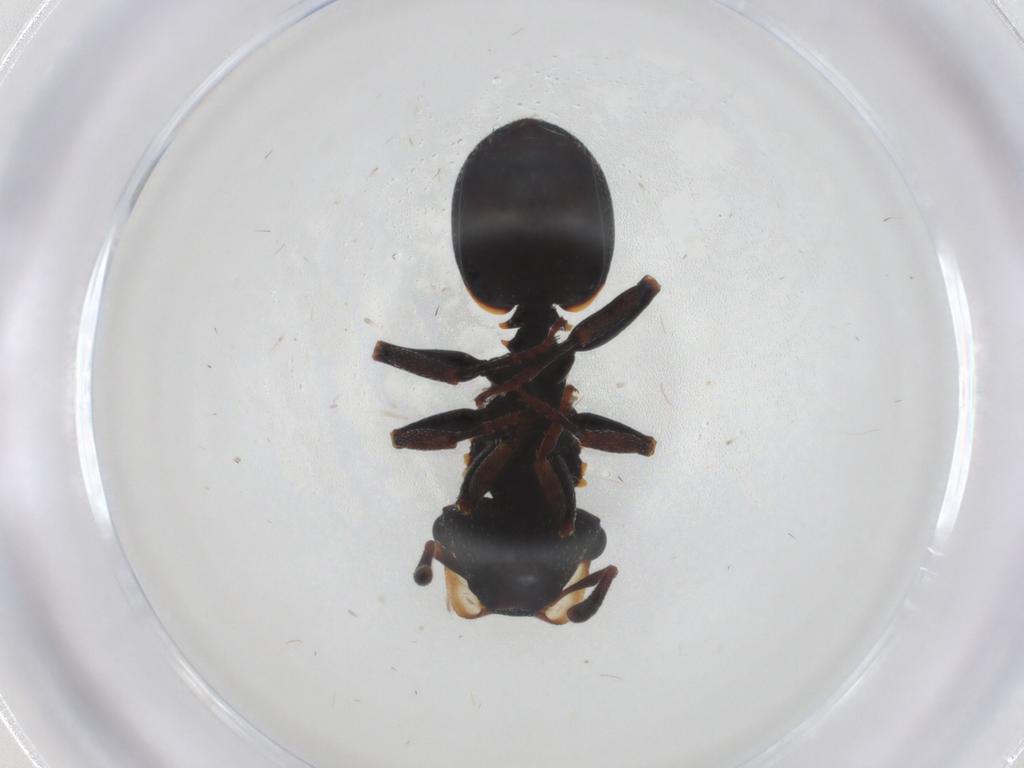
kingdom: Animalia
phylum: Arthropoda
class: Insecta
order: Hymenoptera
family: Formicidae
